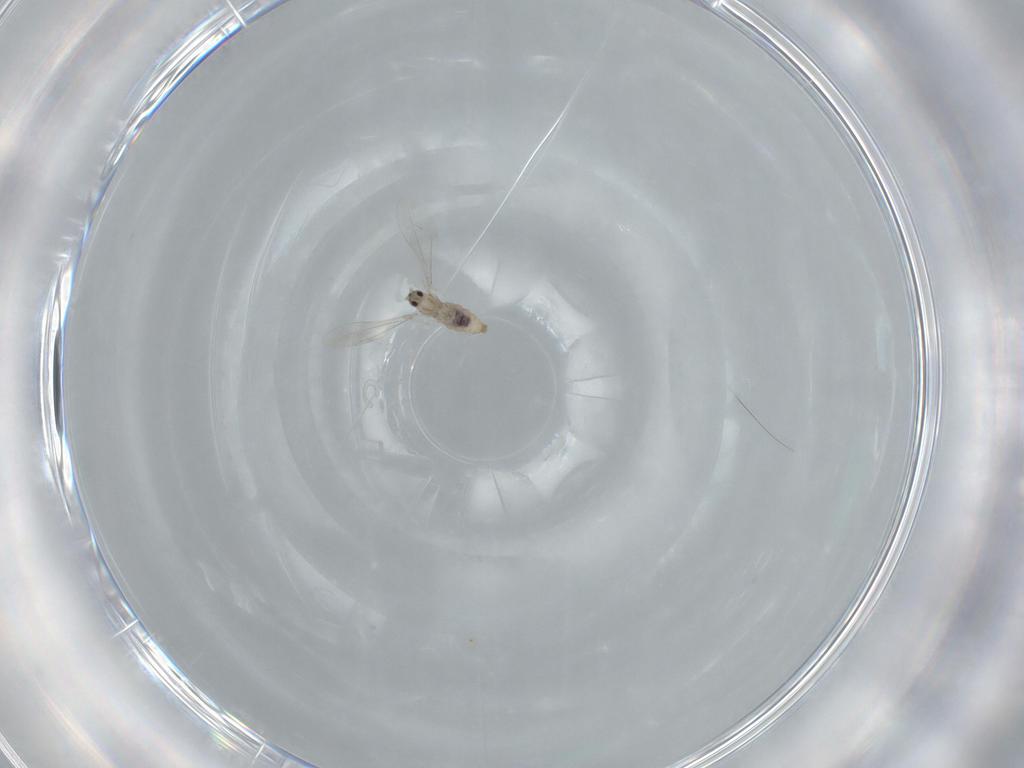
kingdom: Animalia
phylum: Arthropoda
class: Insecta
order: Diptera
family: Cecidomyiidae
